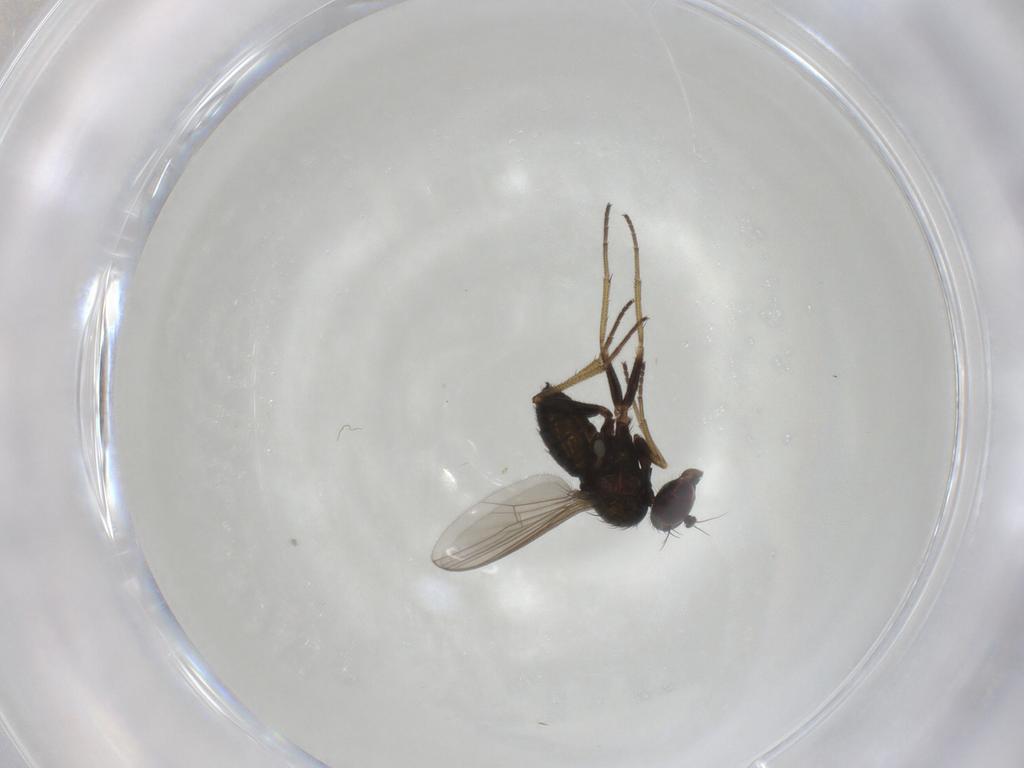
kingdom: Animalia
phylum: Arthropoda
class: Insecta
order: Diptera
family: Dolichopodidae
